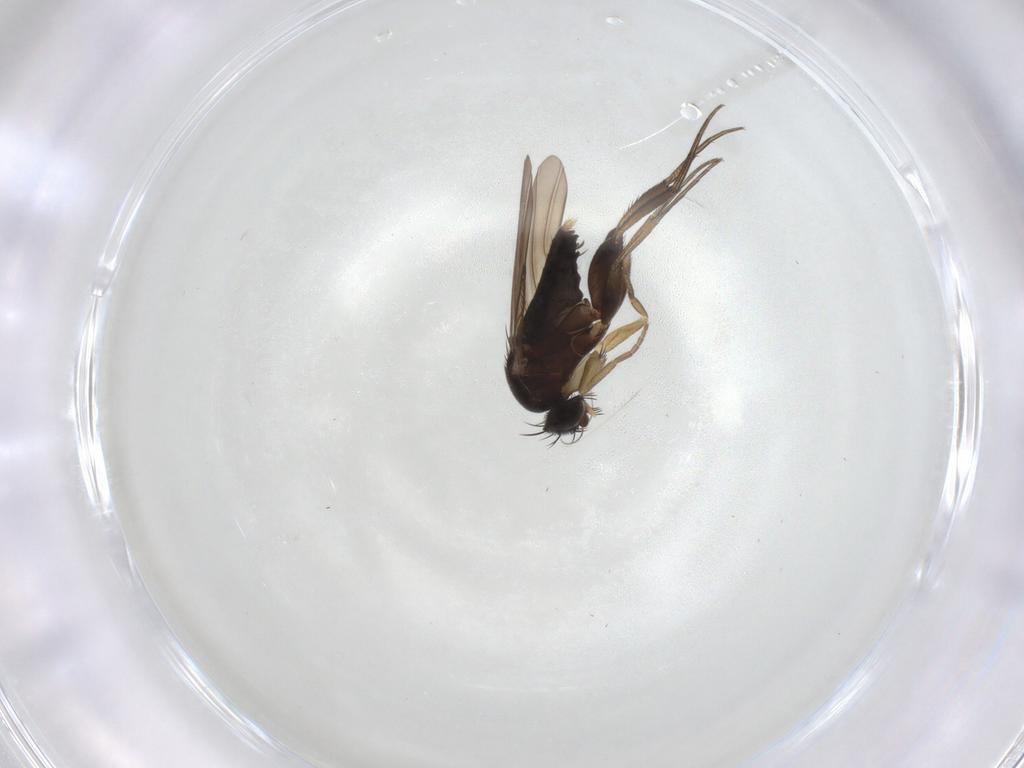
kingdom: Animalia
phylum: Arthropoda
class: Insecta
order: Diptera
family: Phoridae
